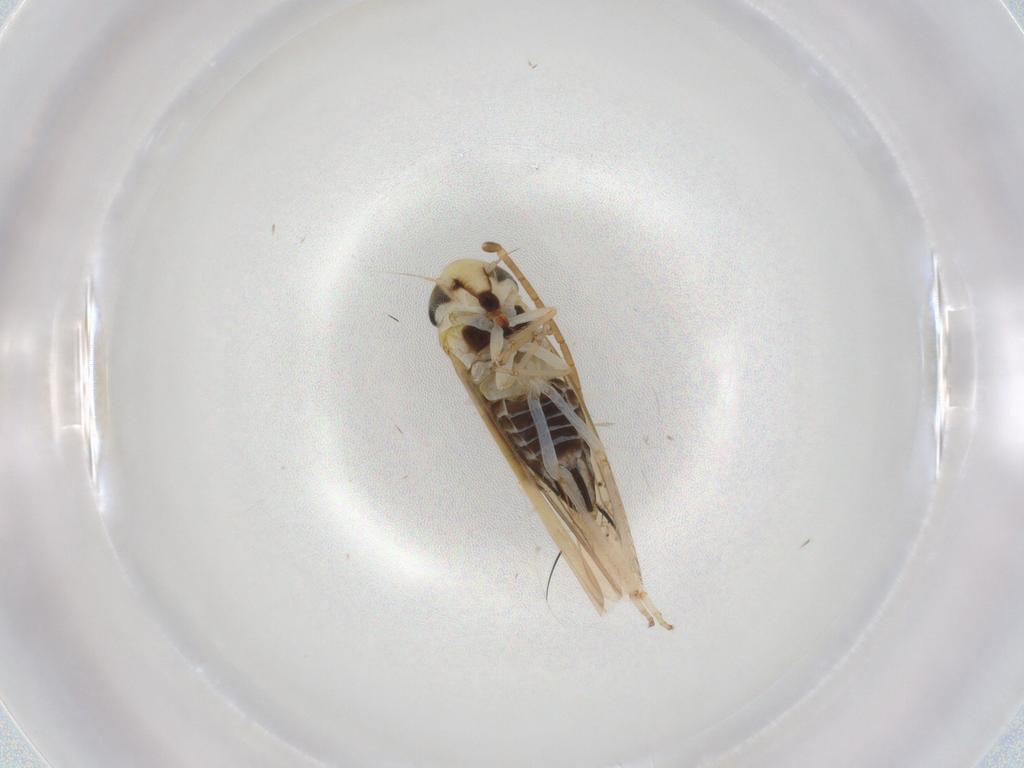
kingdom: Animalia
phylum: Arthropoda
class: Insecta
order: Hemiptera
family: Cicadellidae
